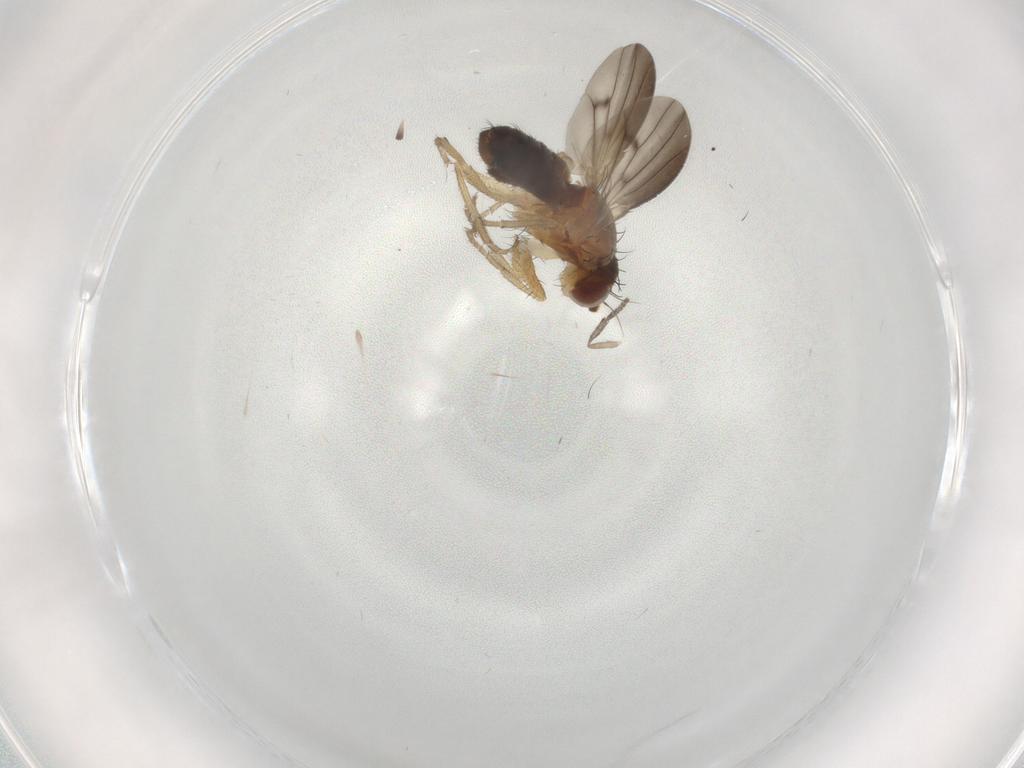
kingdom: Animalia
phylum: Arthropoda
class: Insecta
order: Diptera
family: Heleomyzidae
